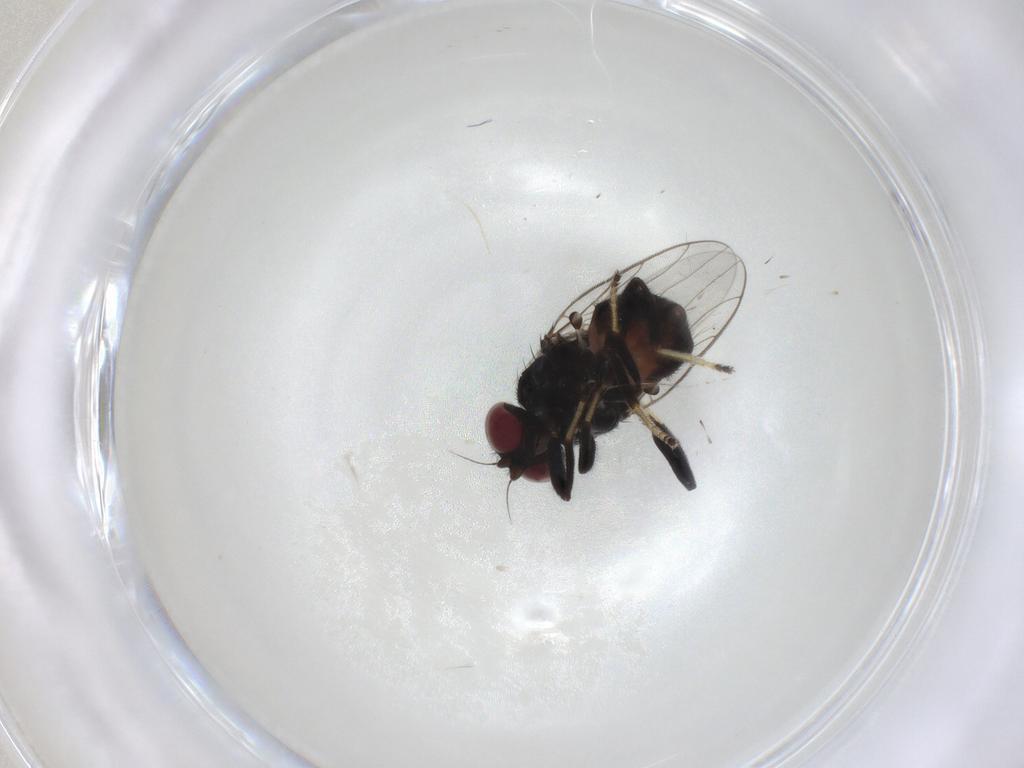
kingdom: Animalia
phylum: Arthropoda
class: Insecta
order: Diptera
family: Chloropidae
